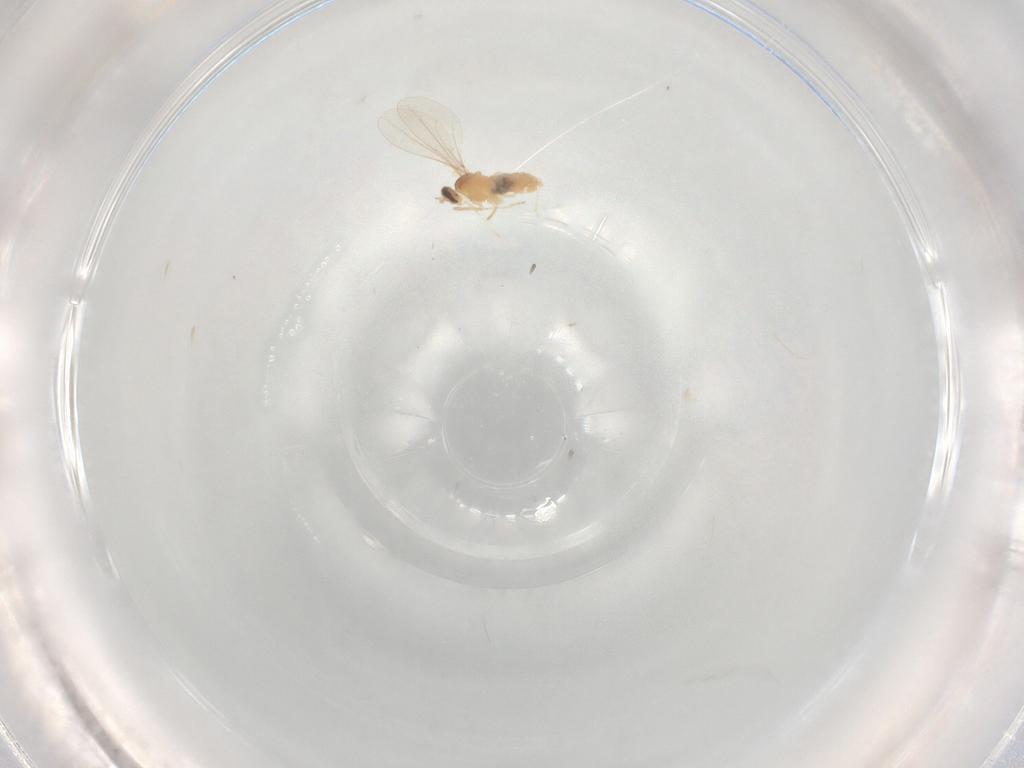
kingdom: Animalia
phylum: Arthropoda
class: Insecta
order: Diptera
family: Cecidomyiidae
